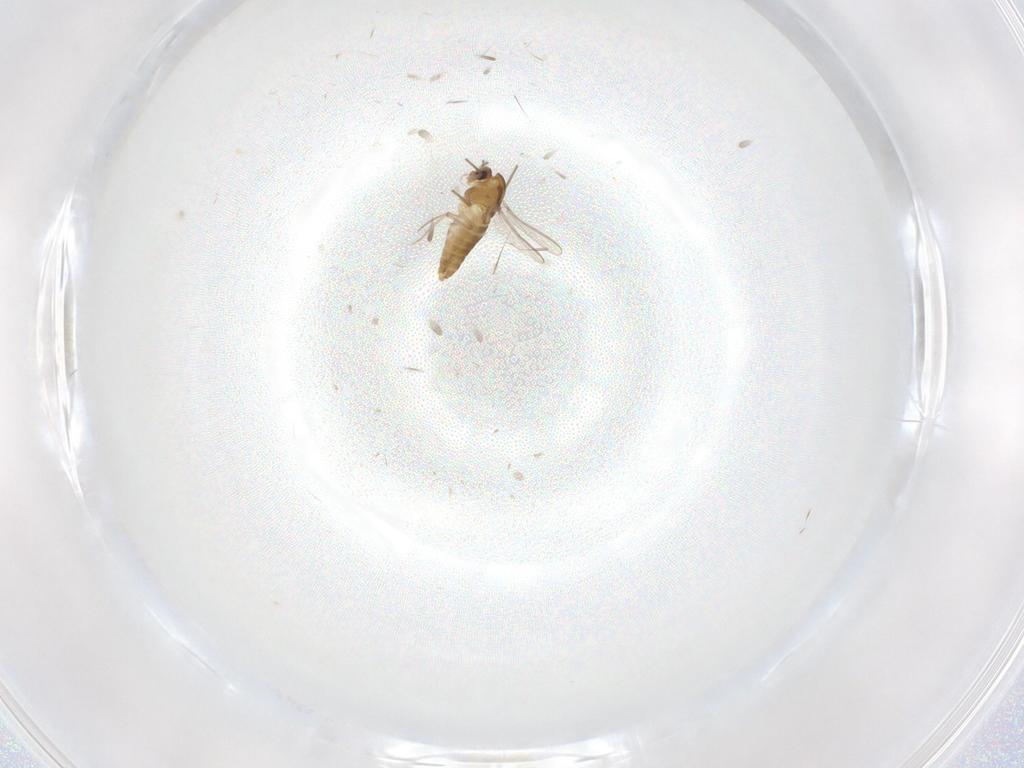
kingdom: Animalia
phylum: Arthropoda
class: Insecta
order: Diptera
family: Chironomidae
